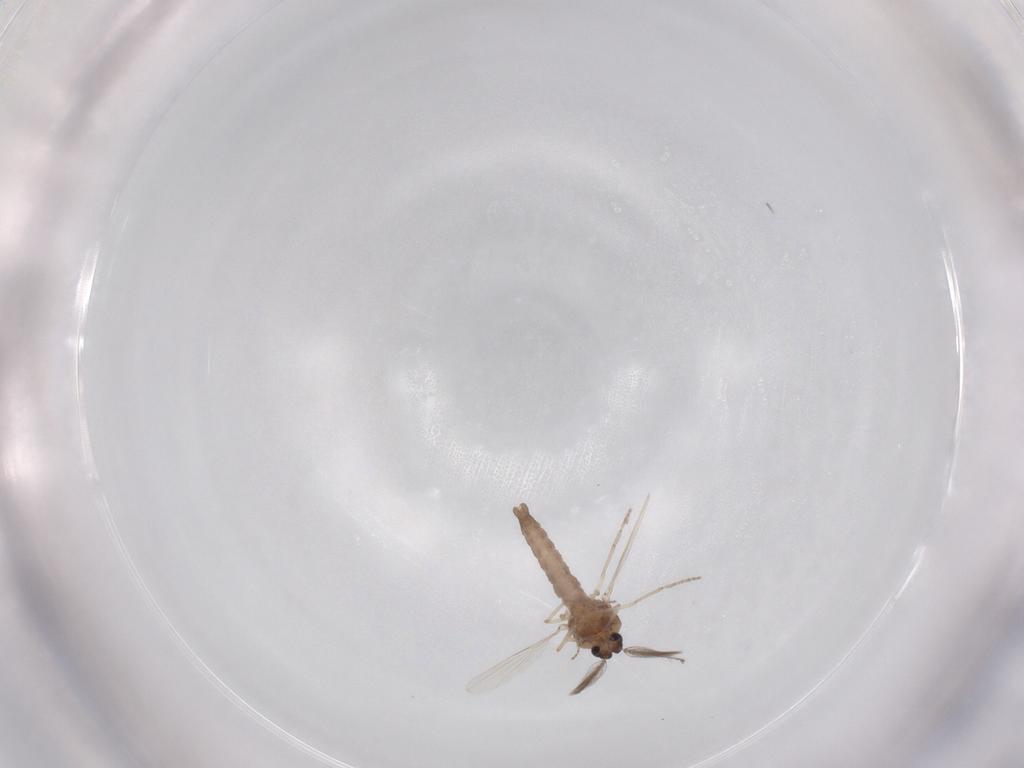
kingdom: Animalia
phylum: Arthropoda
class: Insecta
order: Diptera
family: Ceratopogonidae
